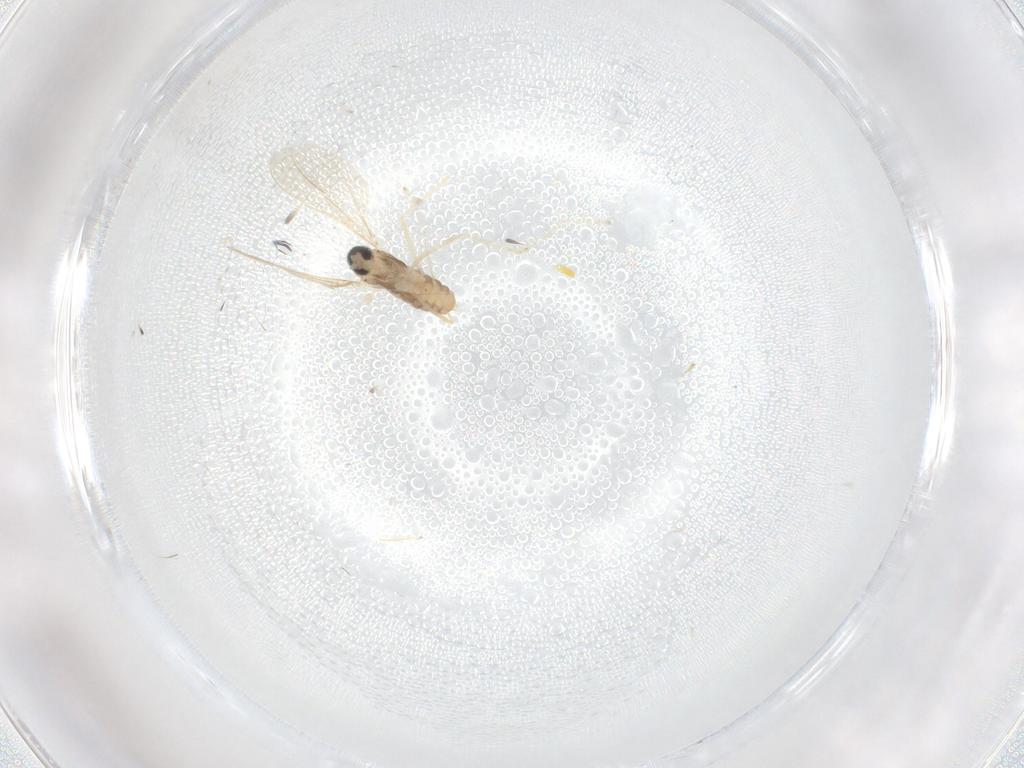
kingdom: Animalia
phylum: Arthropoda
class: Insecta
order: Diptera
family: Cecidomyiidae
